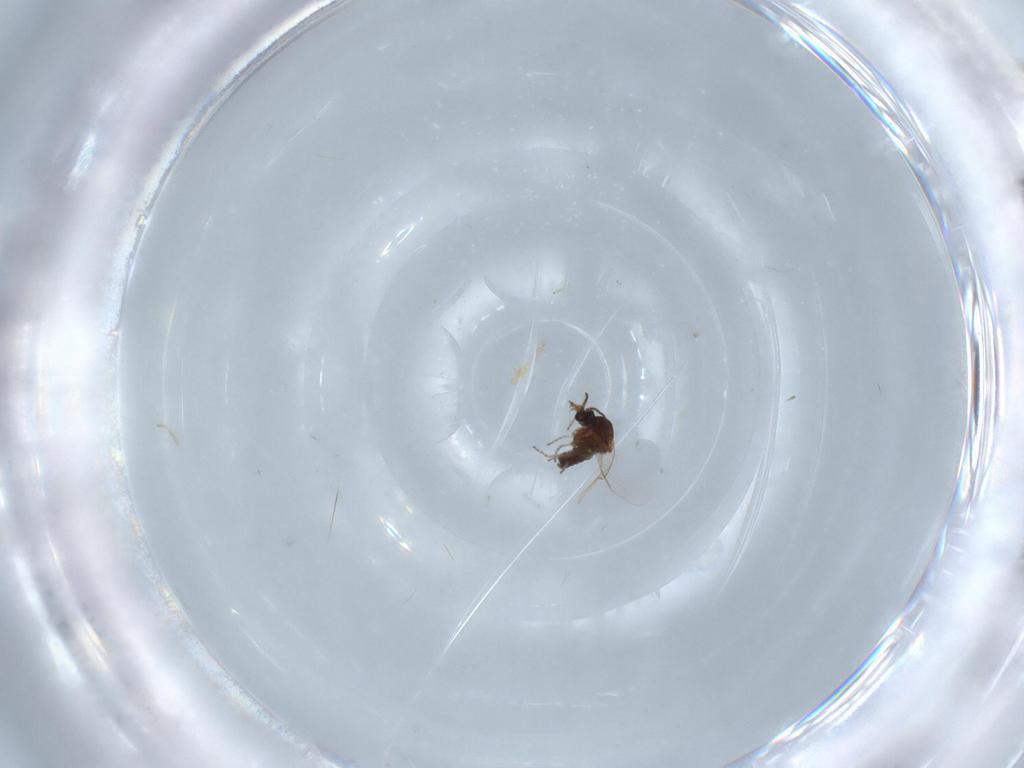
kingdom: Animalia
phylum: Arthropoda
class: Insecta
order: Diptera
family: Ceratopogonidae
